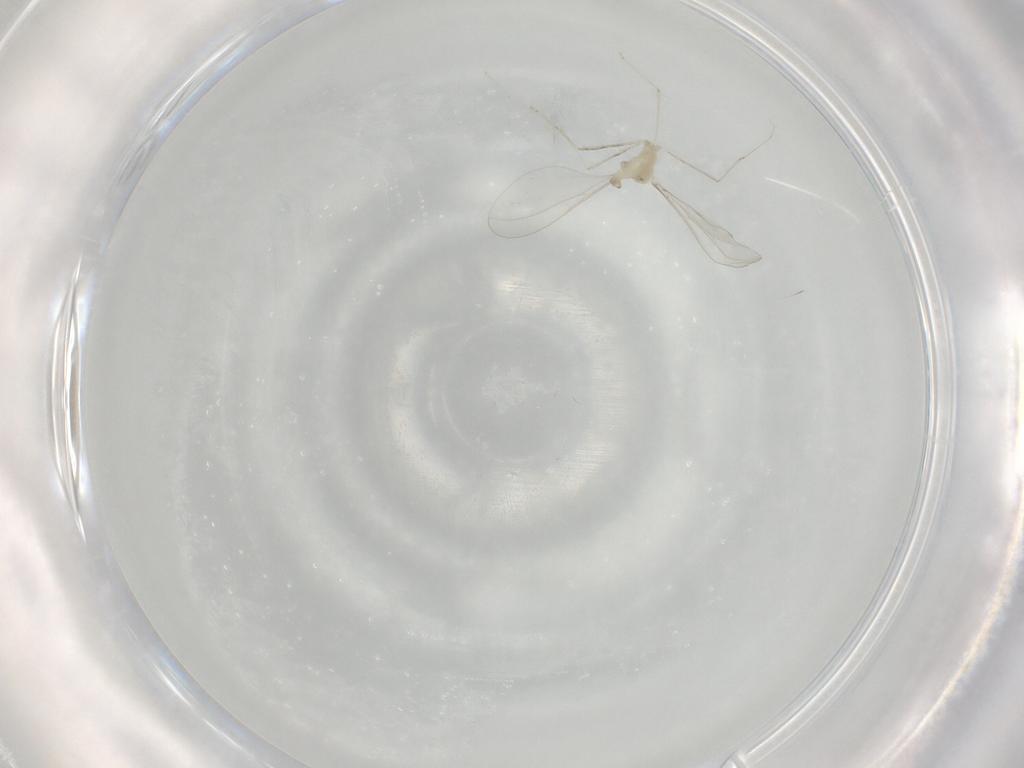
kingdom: Animalia
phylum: Arthropoda
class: Insecta
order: Diptera
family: Cecidomyiidae
